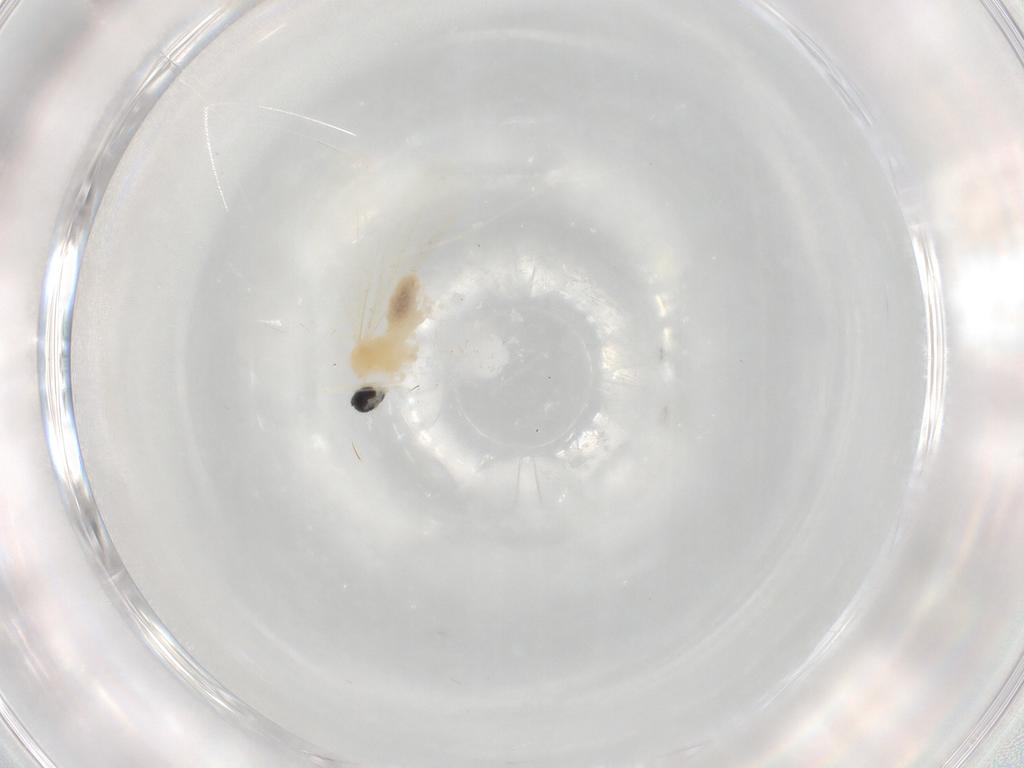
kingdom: Animalia
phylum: Arthropoda
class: Insecta
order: Diptera
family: Cecidomyiidae
